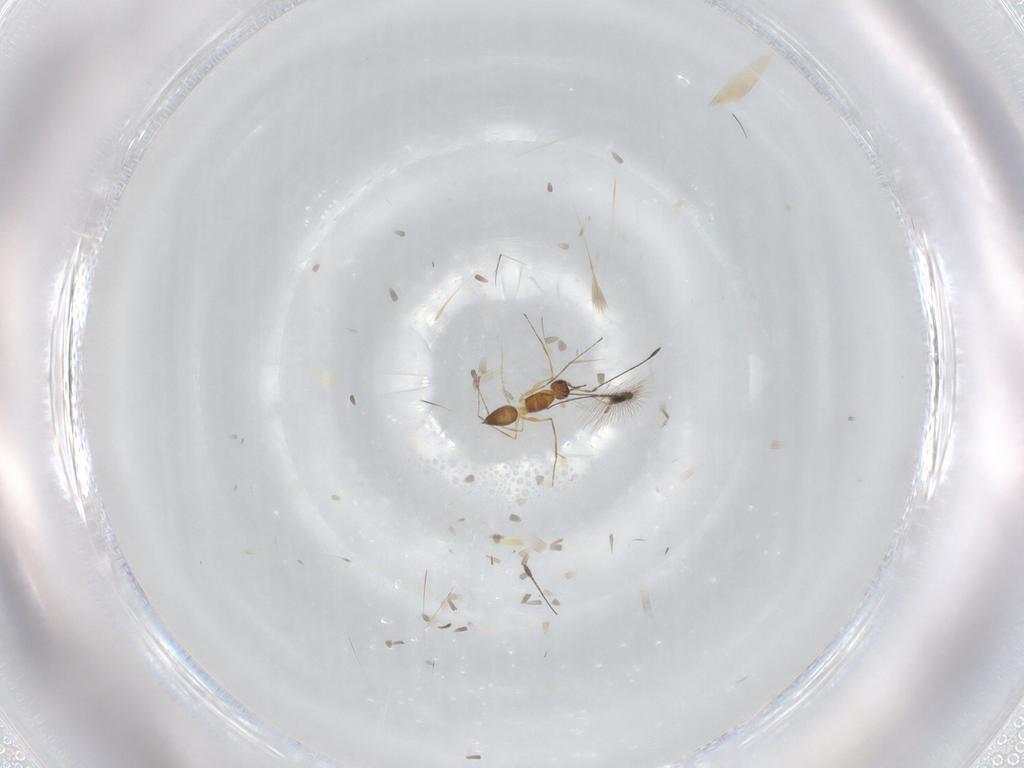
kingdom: Animalia
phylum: Arthropoda
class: Insecta
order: Hymenoptera
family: Mymaridae
